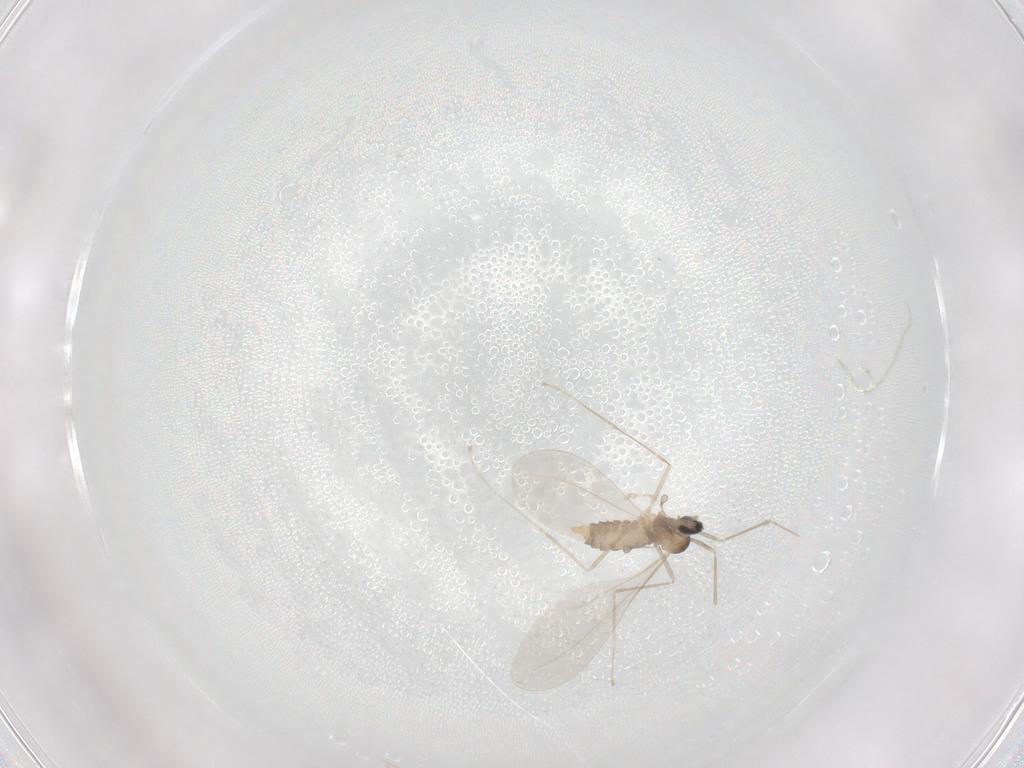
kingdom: Animalia
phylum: Arthropoda
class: Insecta
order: Diptera
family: Cecidomyiidae
